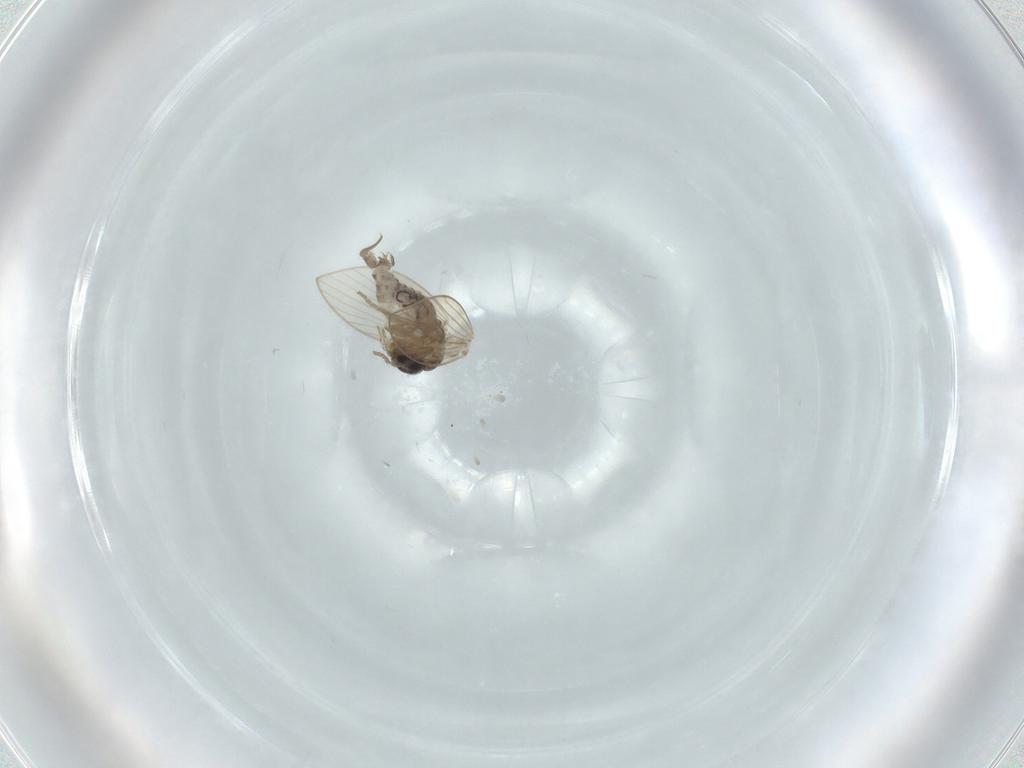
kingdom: Animalia
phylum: Arthropoda
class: Insecta
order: Diptera
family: Psychodidae
